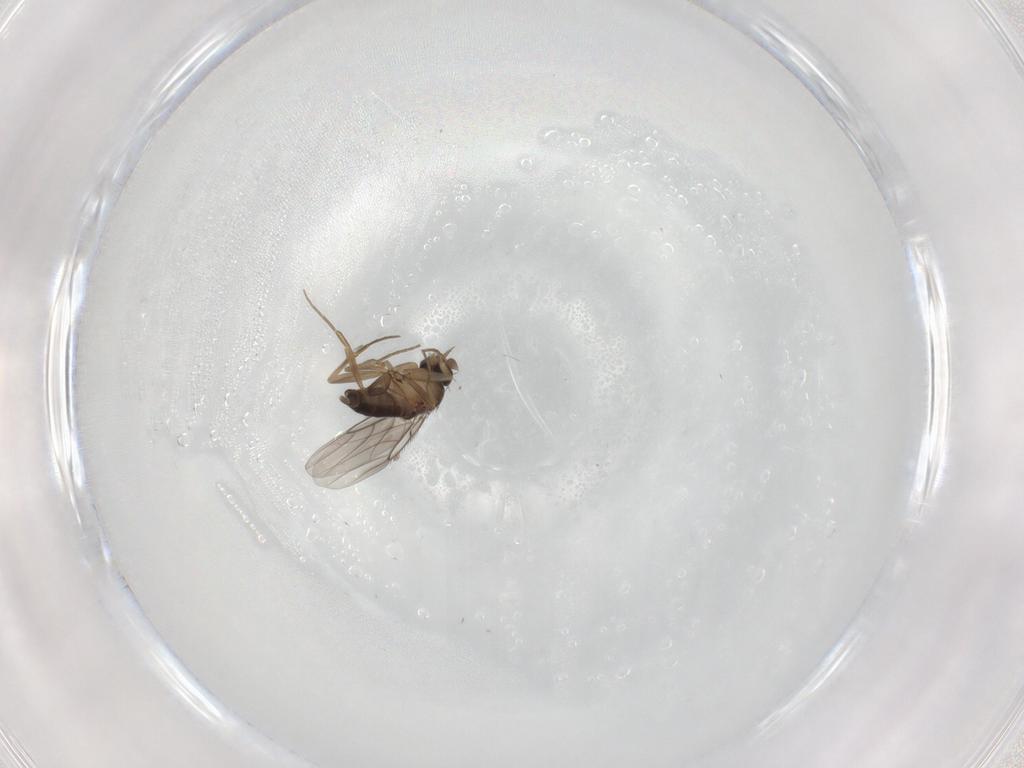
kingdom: Animalia
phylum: Arthropoda
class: Insecta
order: Diptera
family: Phoridae
